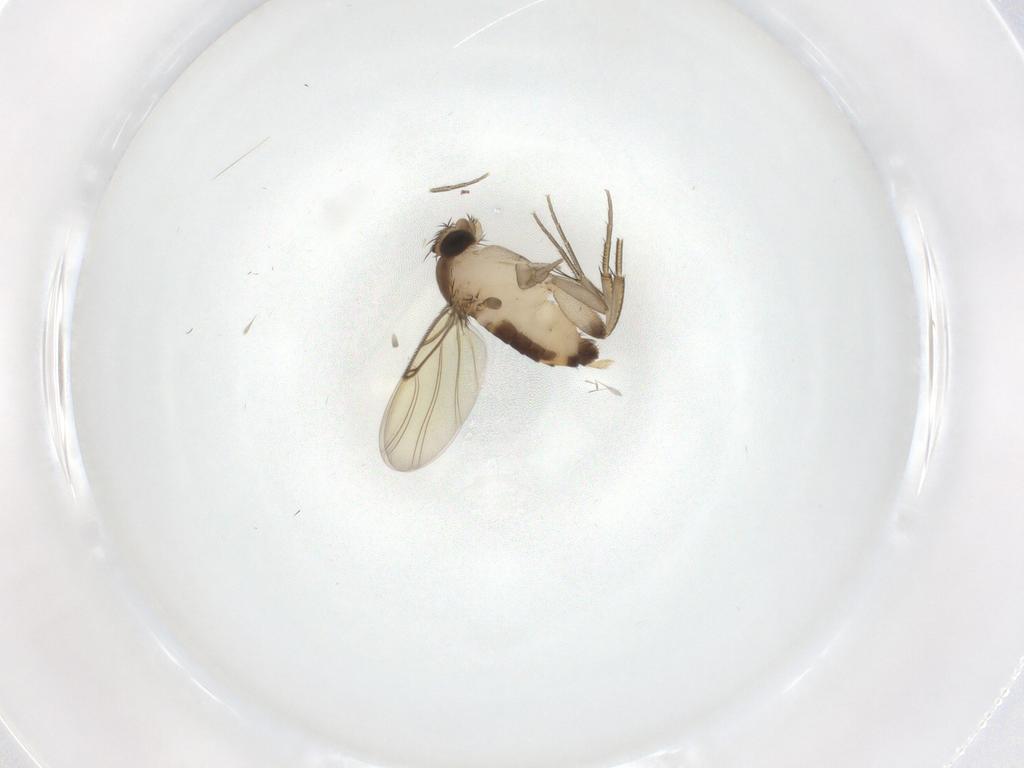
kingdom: Animalia
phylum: Arthropoda
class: Insecta
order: Diptera
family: Phoridae
